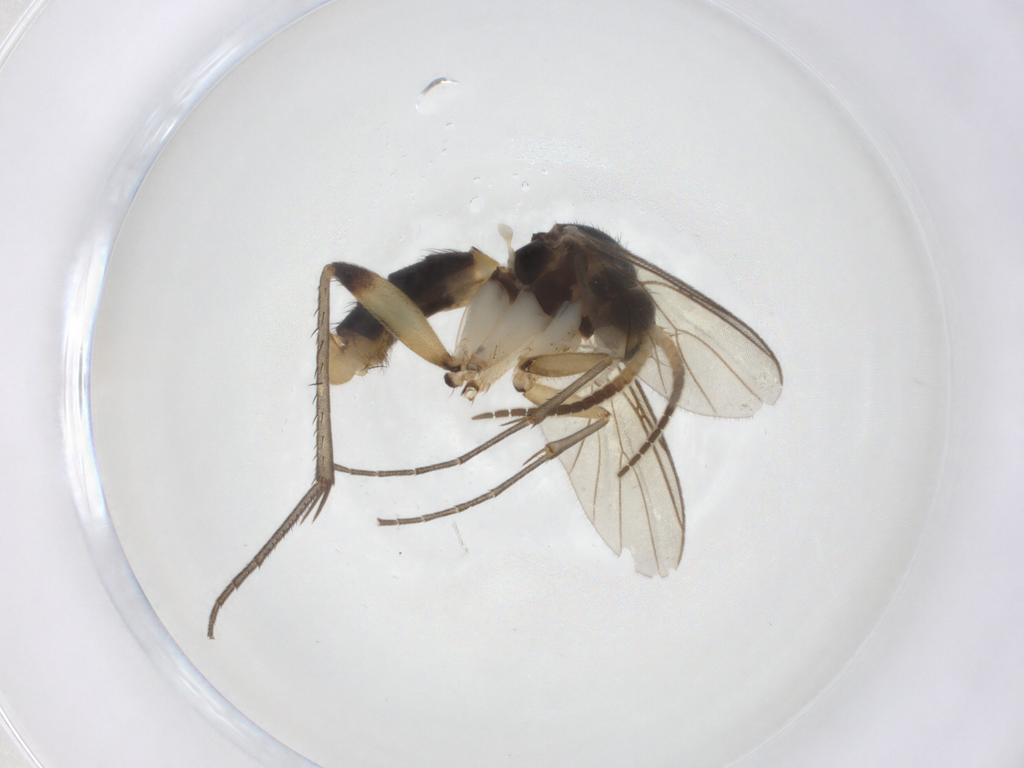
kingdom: Animalia
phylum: Arthropoda
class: Insecta
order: Diptera
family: Mycetophilidae
